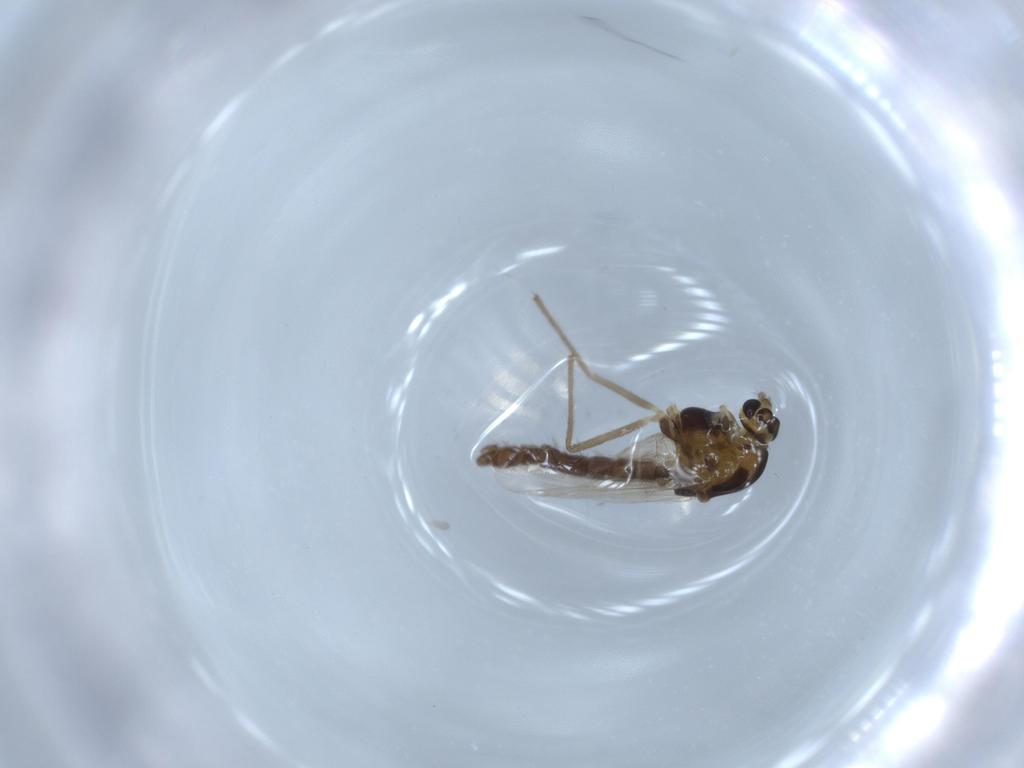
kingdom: Animalia
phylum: Arthropoda
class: Insecta
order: Diptera
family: Chironomidae
